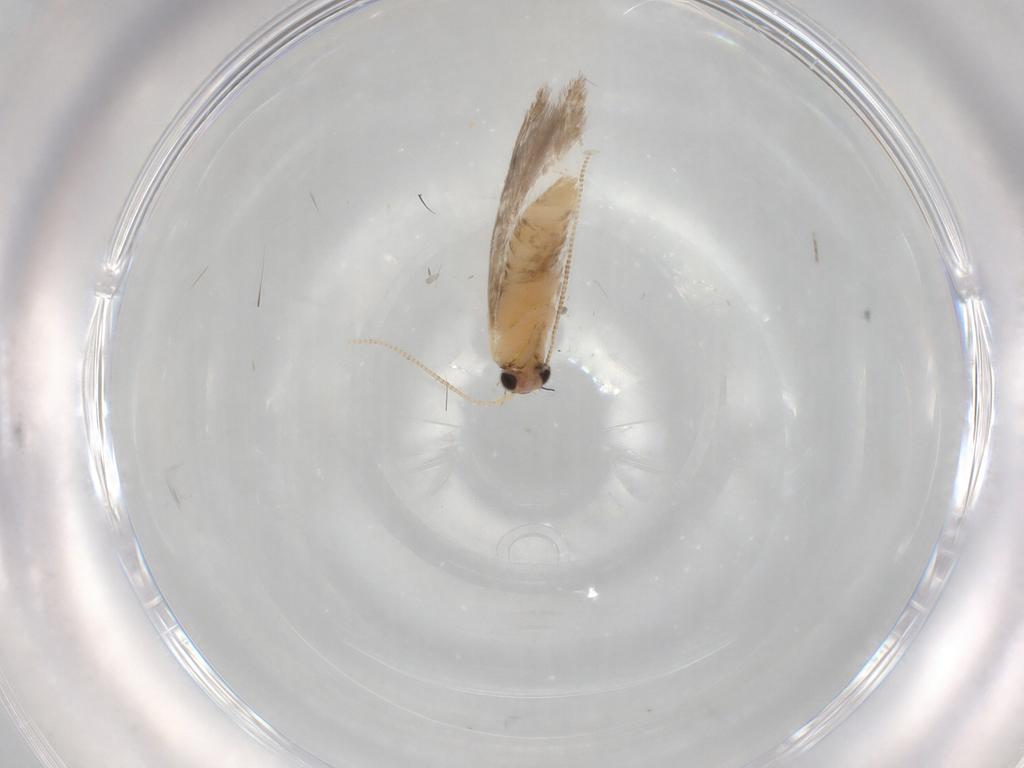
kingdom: Animalia
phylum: Arthropoda
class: Insecta
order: Lepidoptera
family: Tineidae
